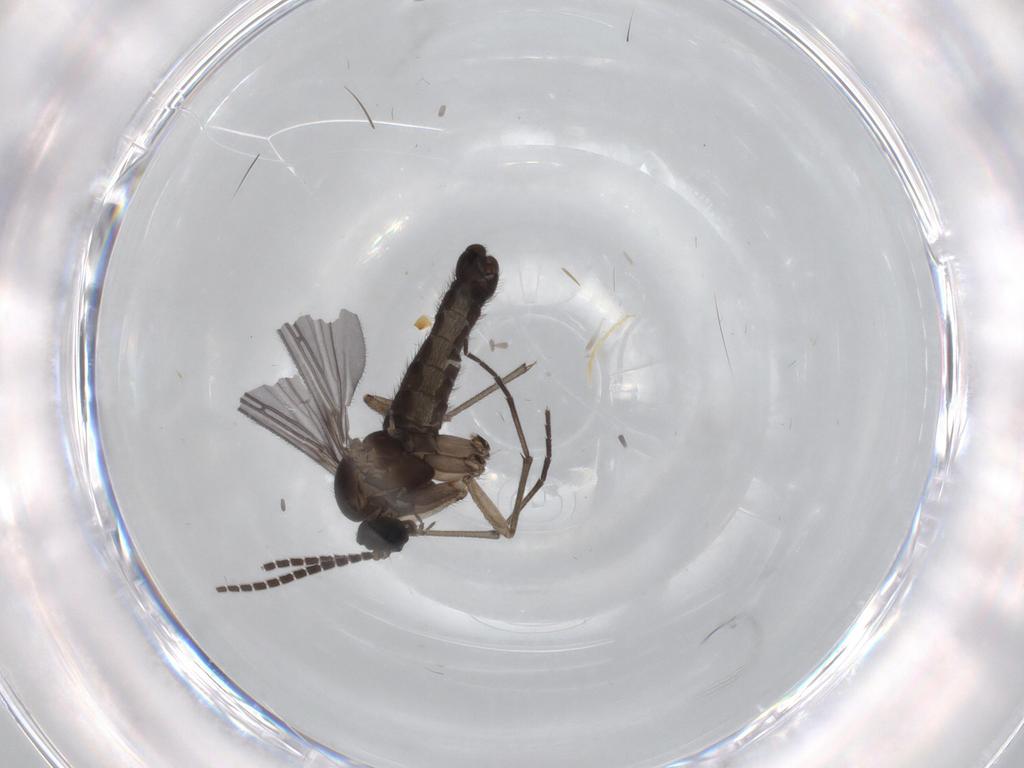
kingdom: Animalia
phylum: Arthropoda
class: Insecta
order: Diptera
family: Sciaridae
